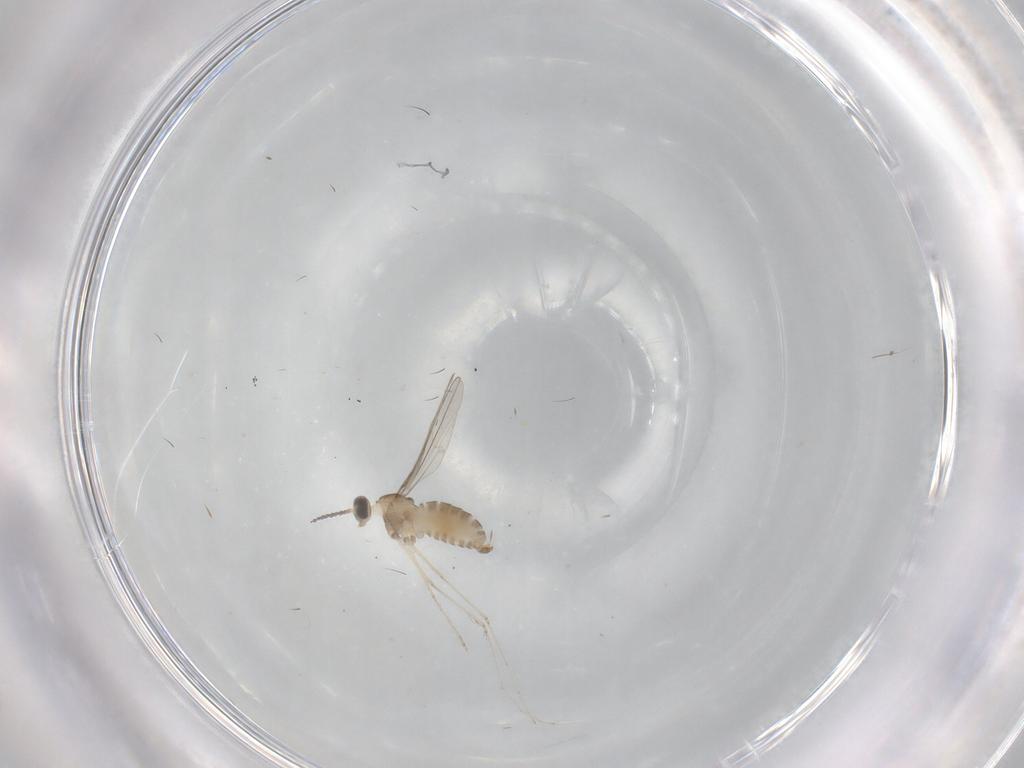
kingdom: Animalia
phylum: Arthropoda
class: Insecta
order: Diptera
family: Cecidomyiidae
